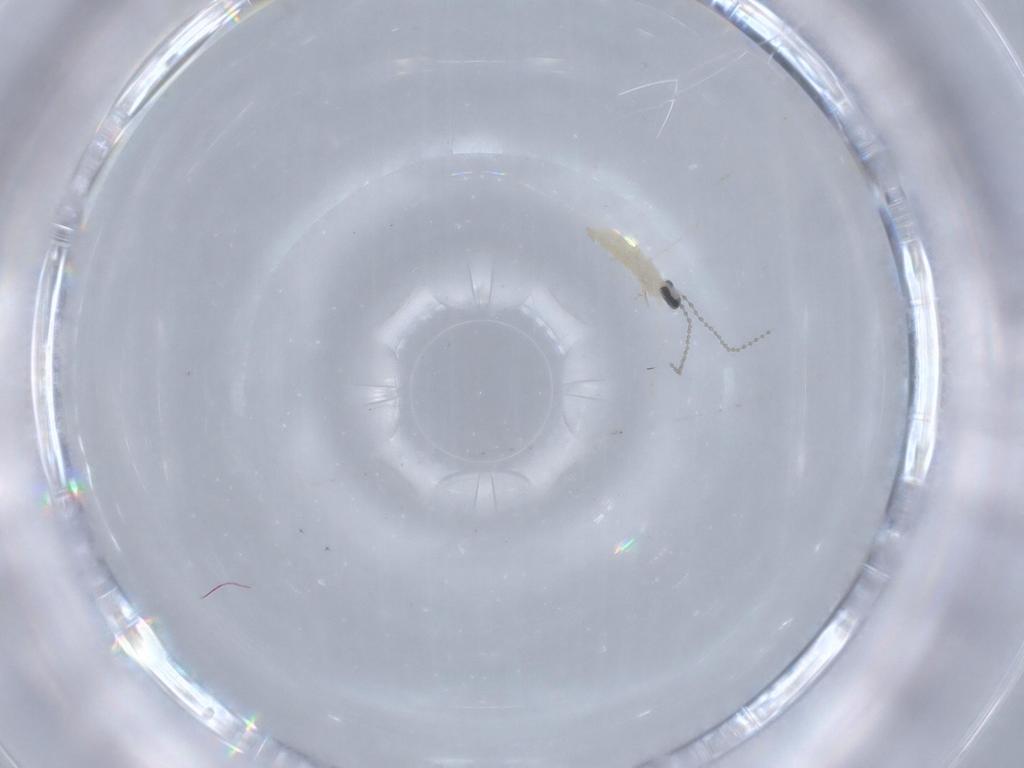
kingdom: Animalia
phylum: Arthropoda
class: Insecta
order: Diptera
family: Cecidomyiidae
